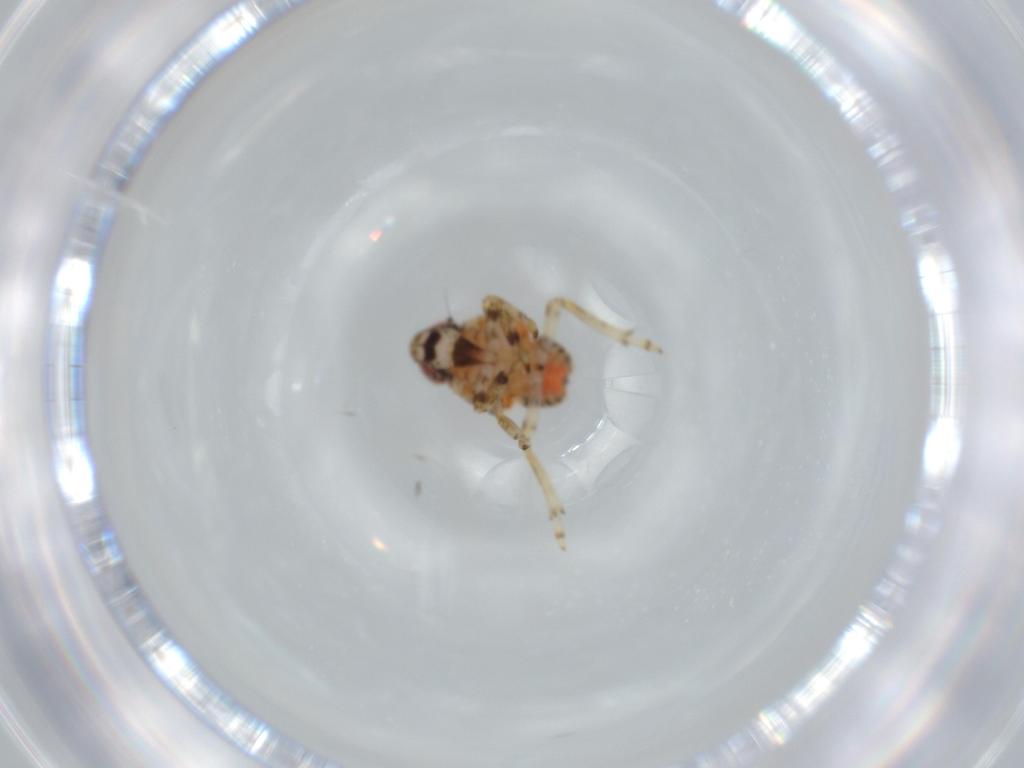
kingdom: Animalia
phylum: Arthropoda
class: Insecta
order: Hemiptera
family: Issidae
